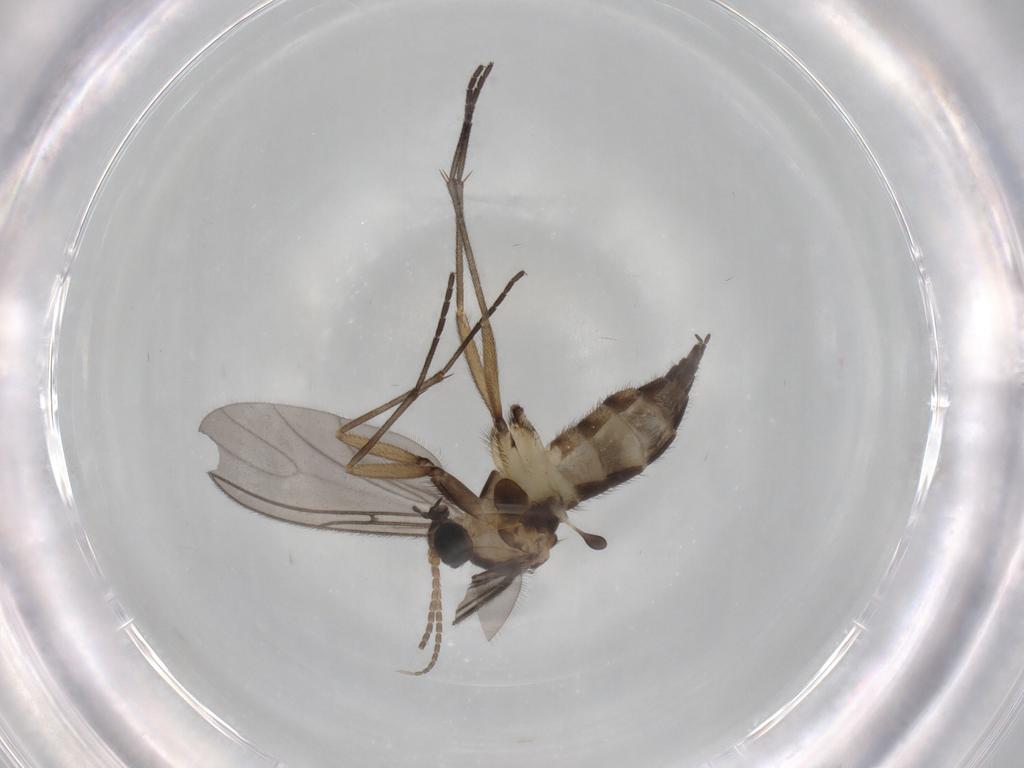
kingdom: Animalia
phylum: Arthropoda
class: Insecta
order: Diptera
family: Sciaridae
